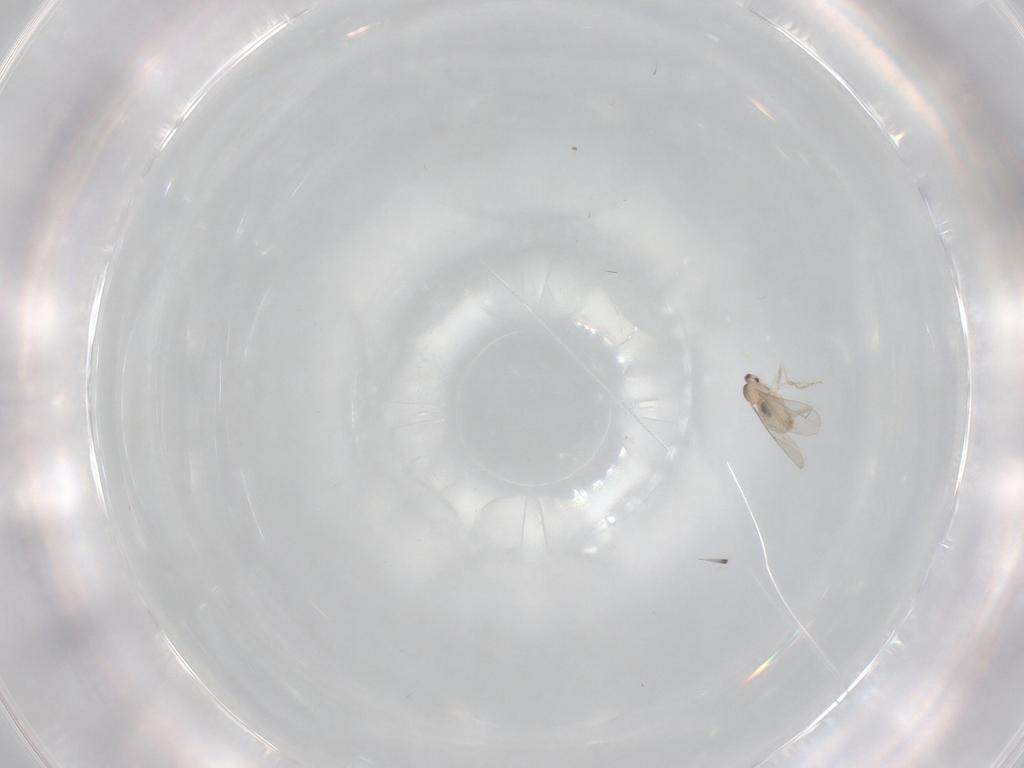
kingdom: Animalia
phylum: Arthropoda
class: Insecta
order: Diptera
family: Cecidomyiidae
